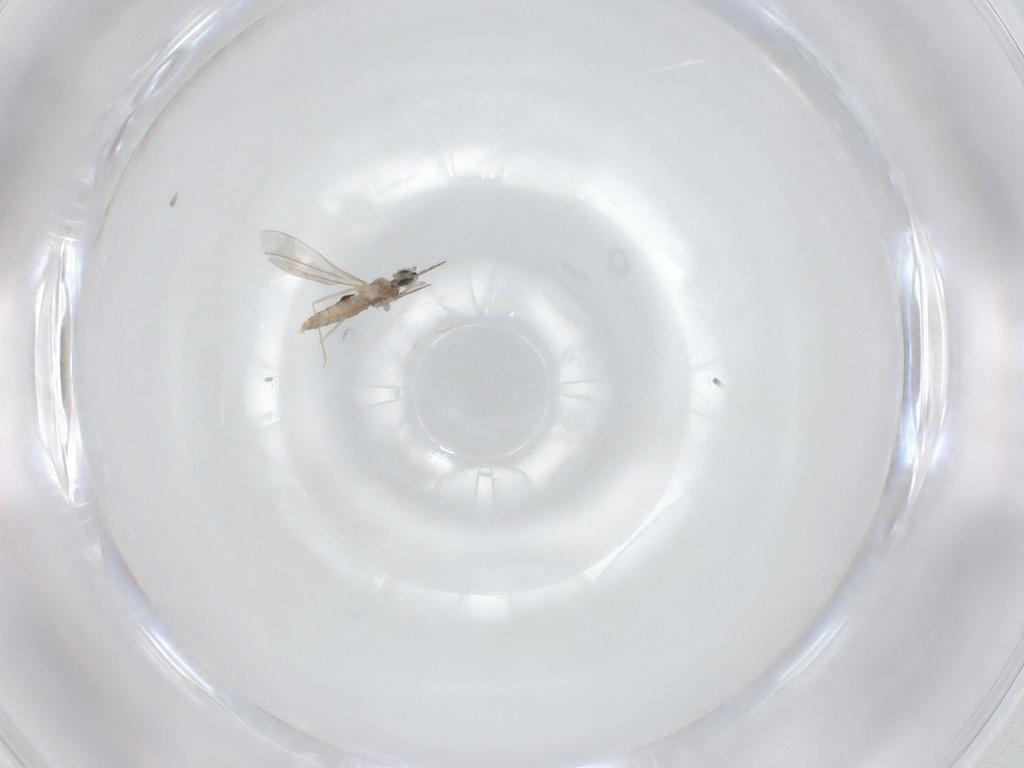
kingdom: Animalia
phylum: Arthropoda
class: Insecta
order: Diptera
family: Cecidomyiidae
